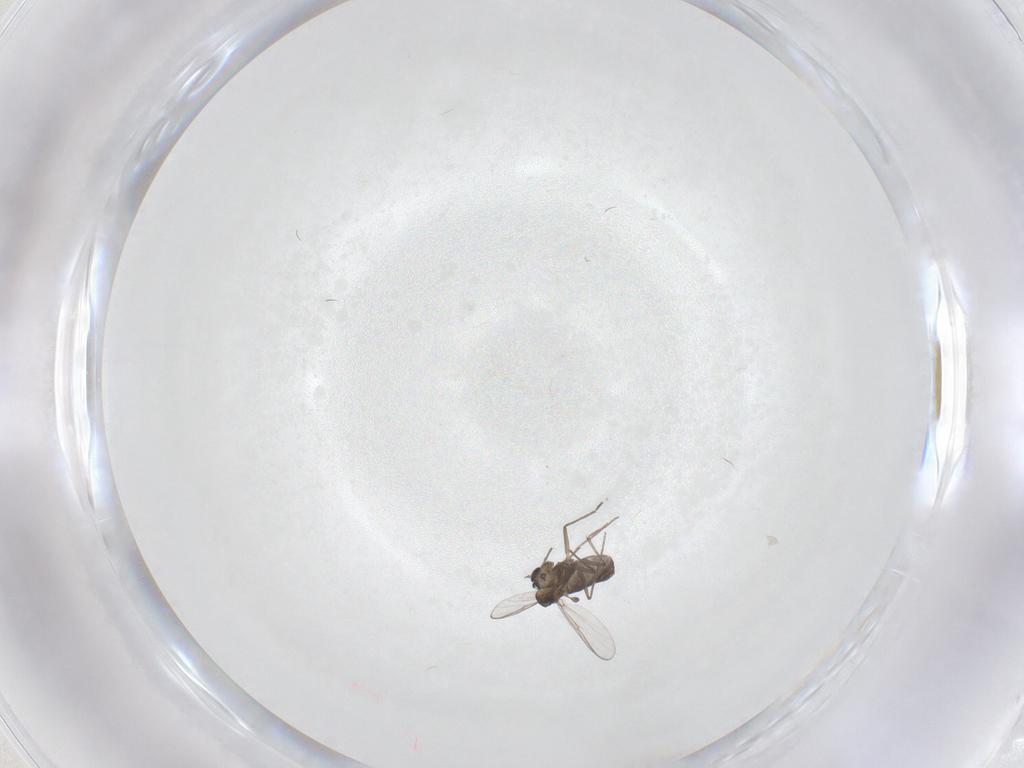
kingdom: Animalia
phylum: Arthropoda
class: Insecta
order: Diptera
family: Chironomidae
